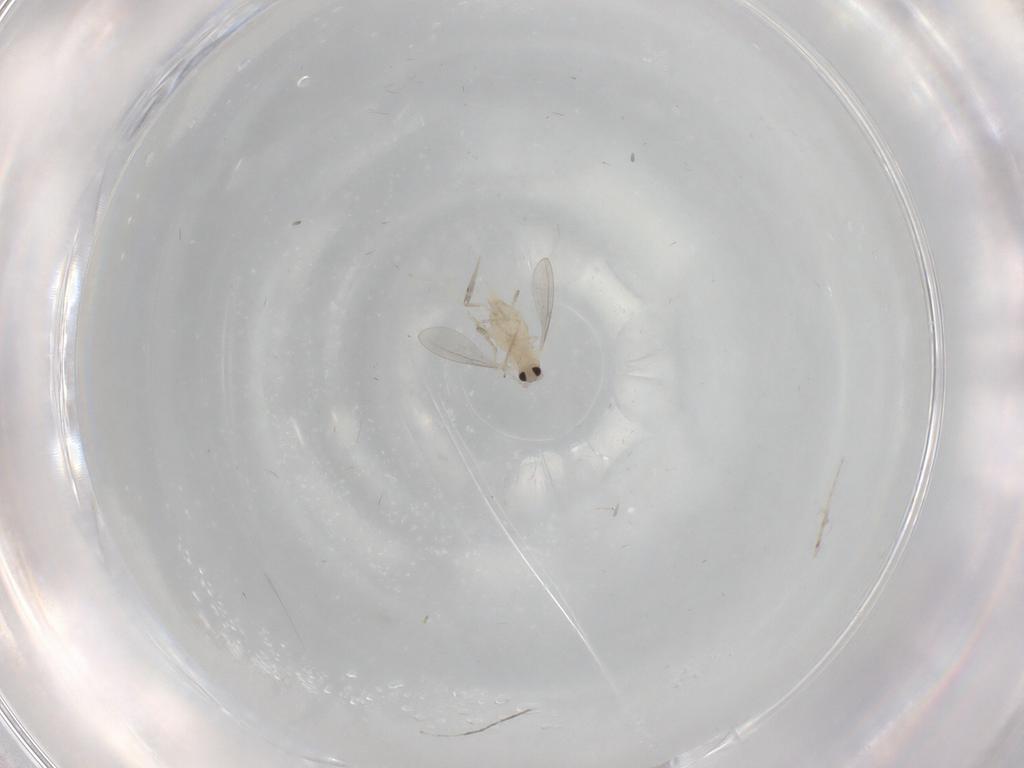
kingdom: Animalia
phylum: Arthropoda
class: Insecta
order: Diptera
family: Cecidomyiidae
